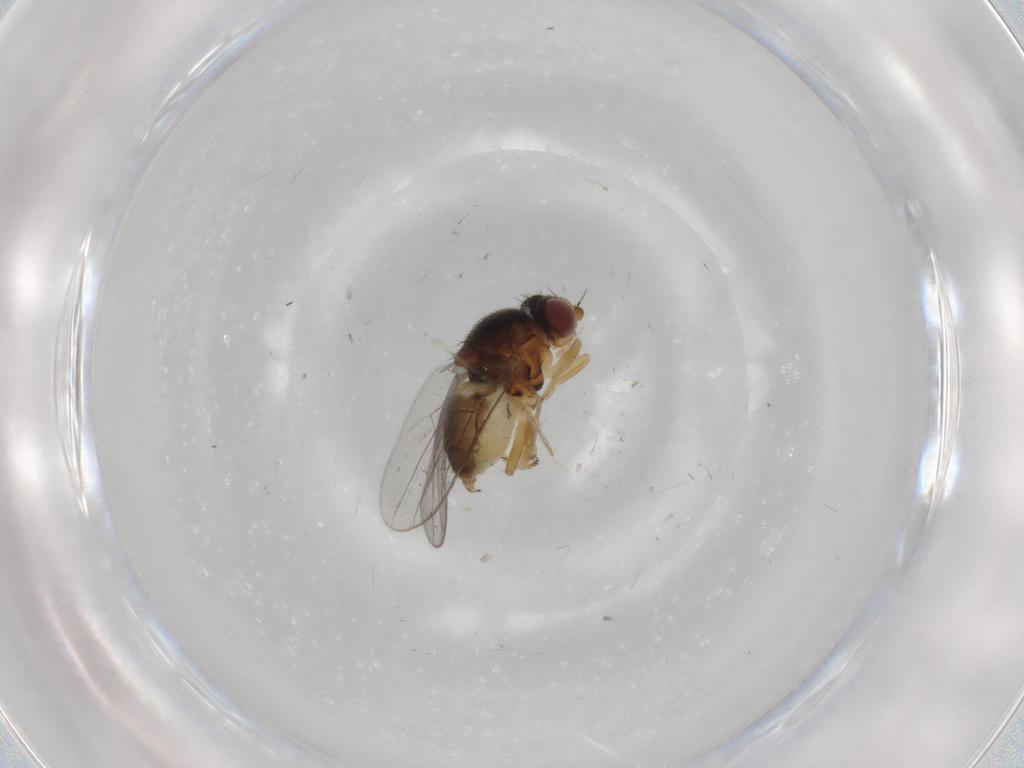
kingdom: Animalia
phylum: Arthropoda
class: Insecta
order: Diptera
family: Chloropidae
